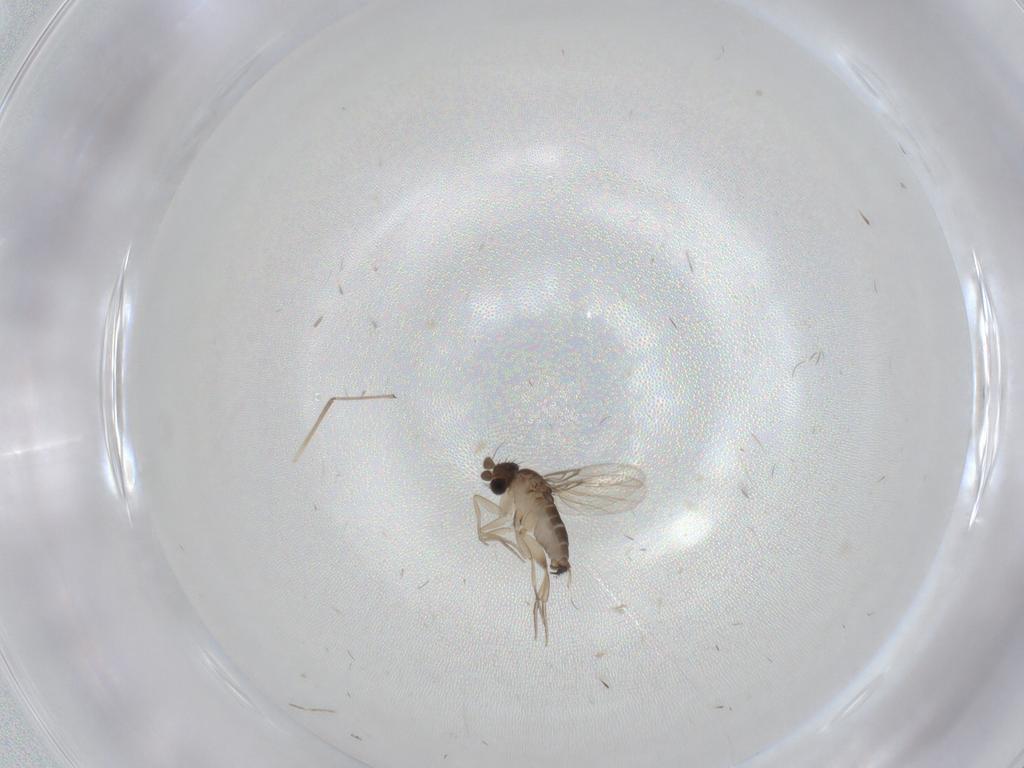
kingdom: Animalia
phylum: Arthropoda
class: Insecta
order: Diptera
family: Phoridae
